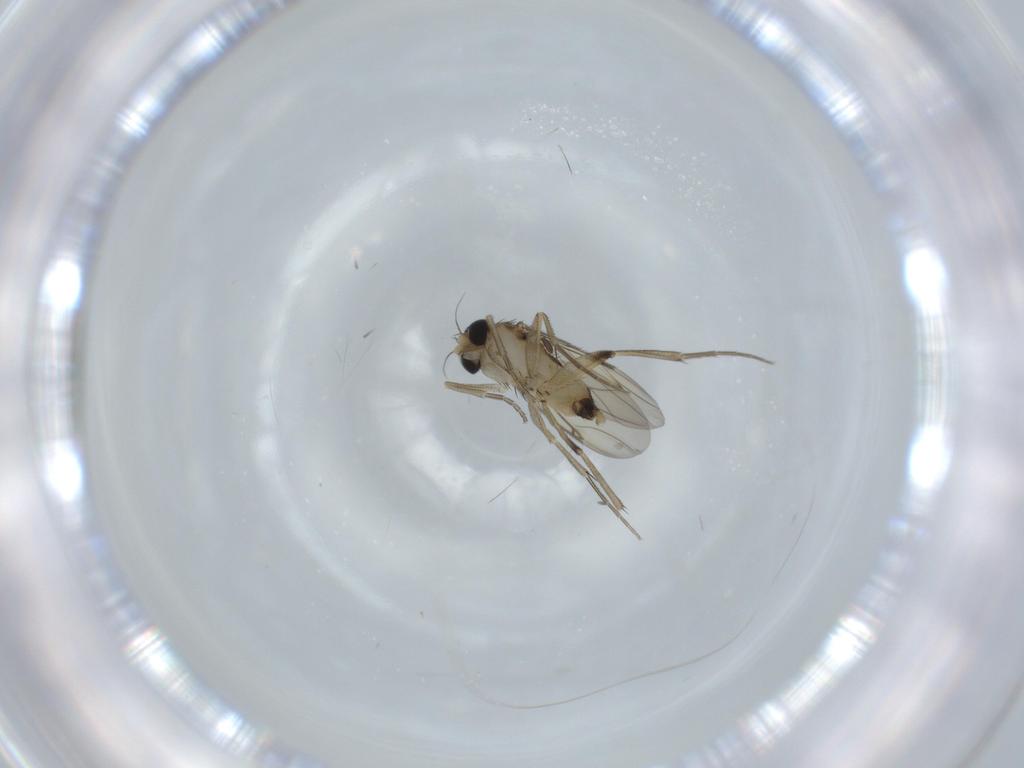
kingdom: Animalia
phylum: Arthropoda
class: Insecta
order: Diptera
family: Phoridae
